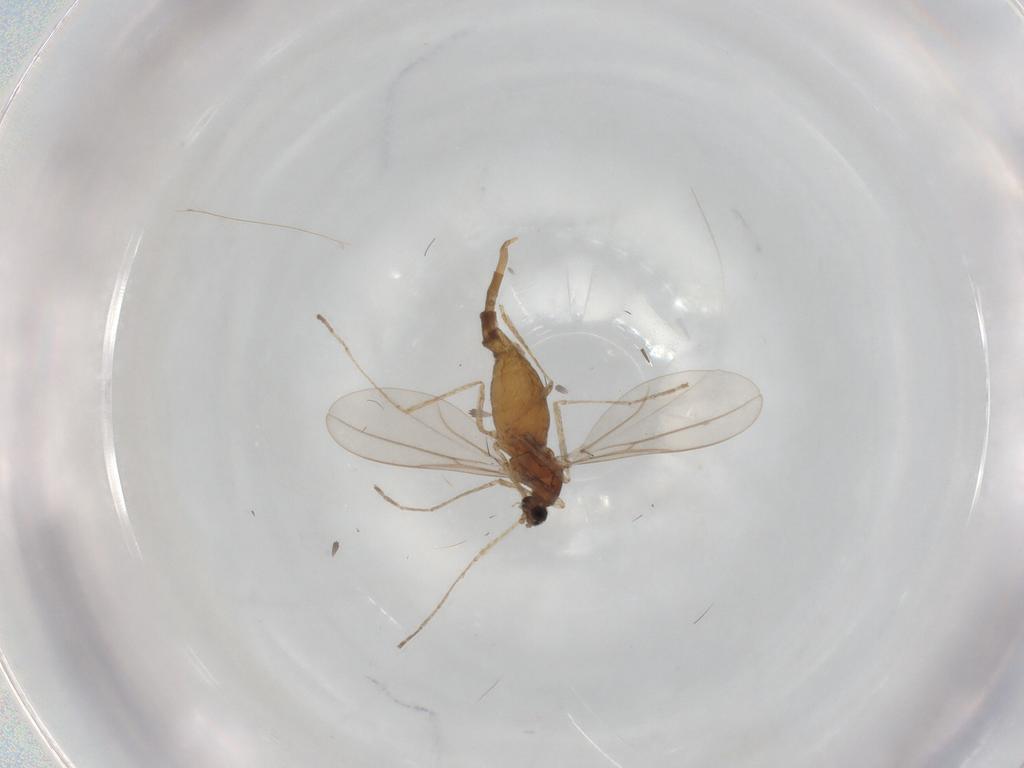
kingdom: Animalia
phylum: Arthropoda
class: Insecta
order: Diptera
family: Cecidomyiidae
